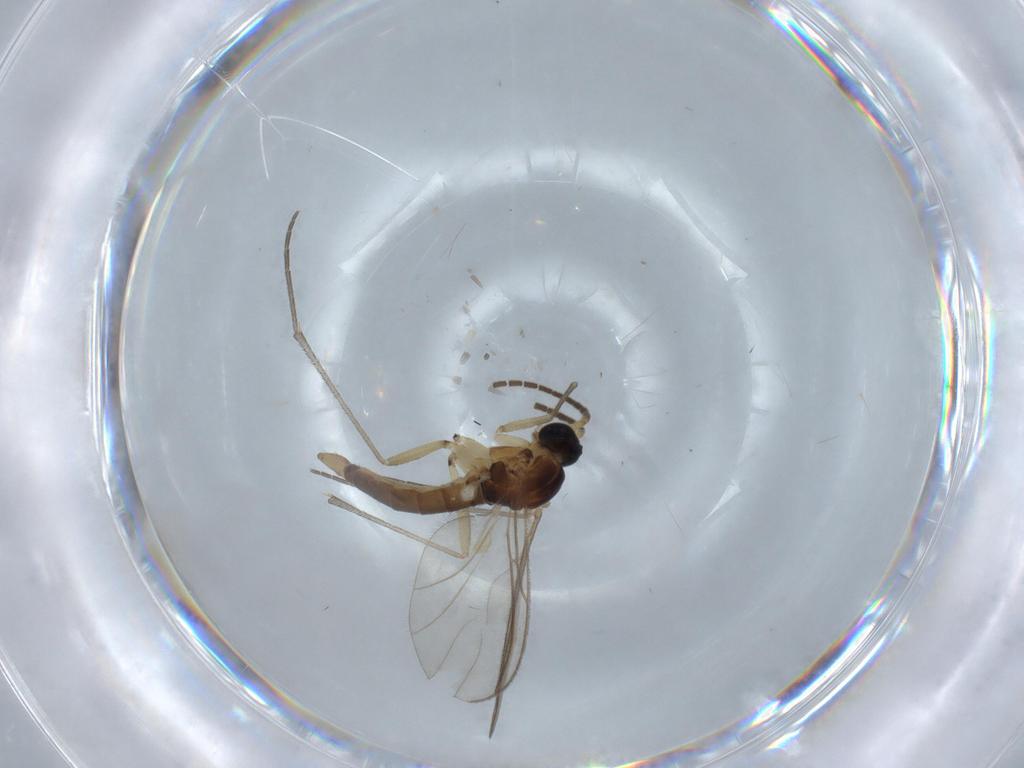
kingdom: Animalia
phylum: Arthropoda
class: Insecta
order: Diptera
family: Sciaridae
